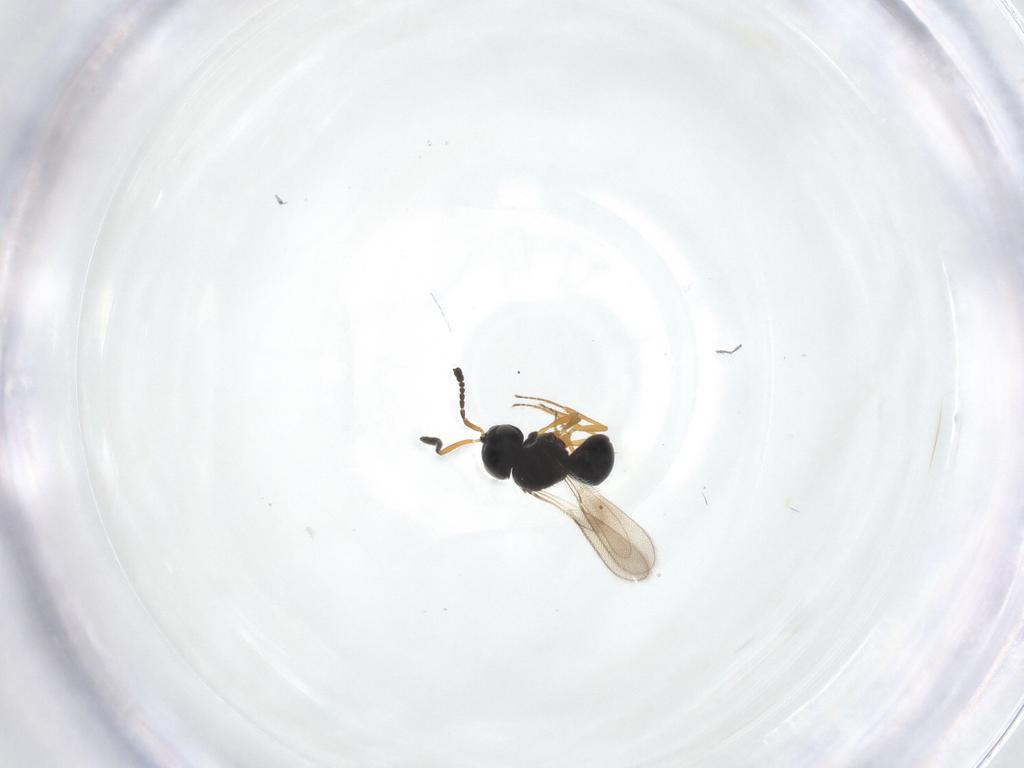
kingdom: Animalia
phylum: Arthropoda
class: Insecta
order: Hymenoptera
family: Scelionidae
